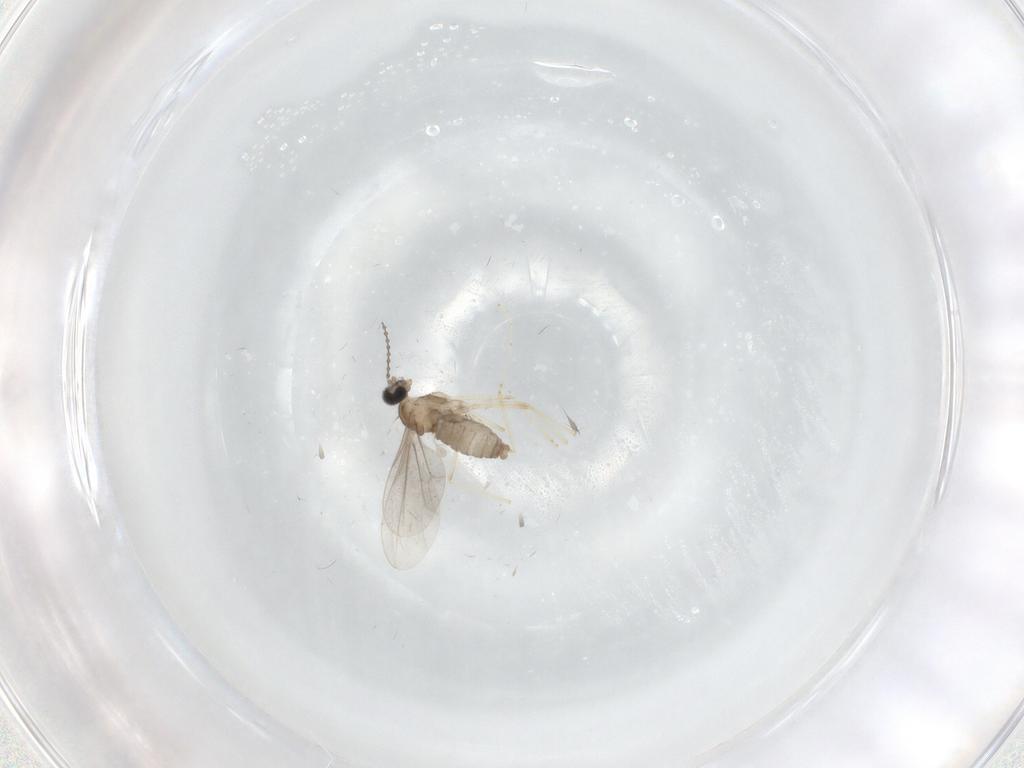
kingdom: Animalia
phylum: Arthropoda
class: Insecta
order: Diptera
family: Cecidomyiidae
